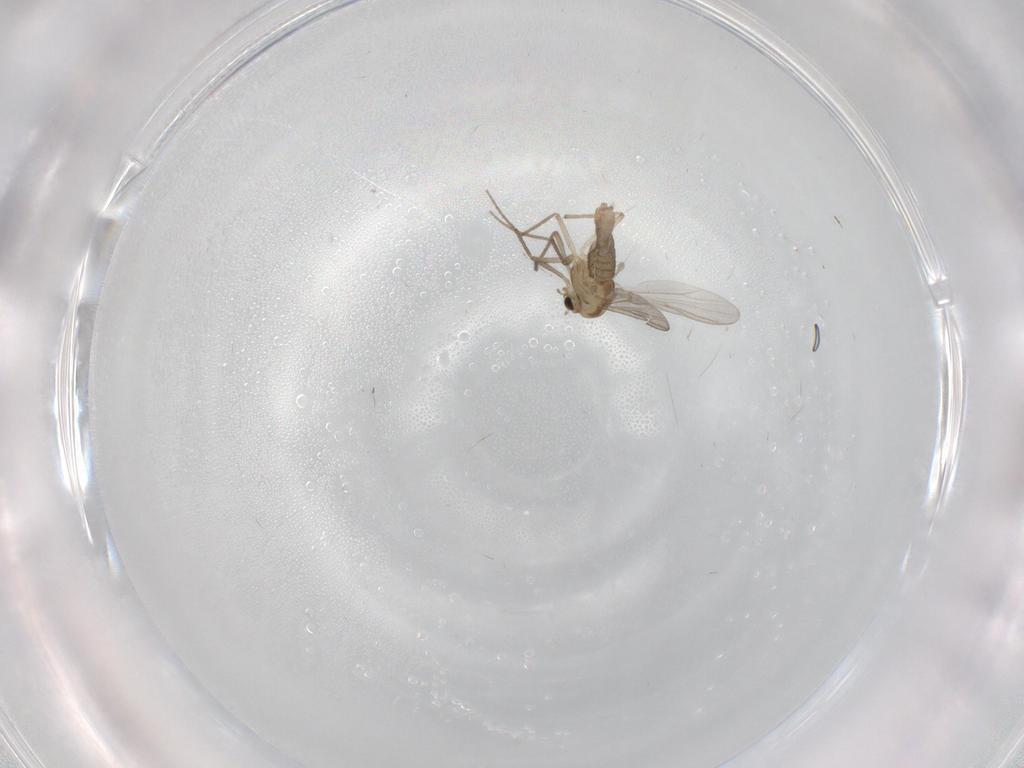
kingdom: Animalia
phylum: Arthropoda
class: Insecta
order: Diptera
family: Chironomidae
